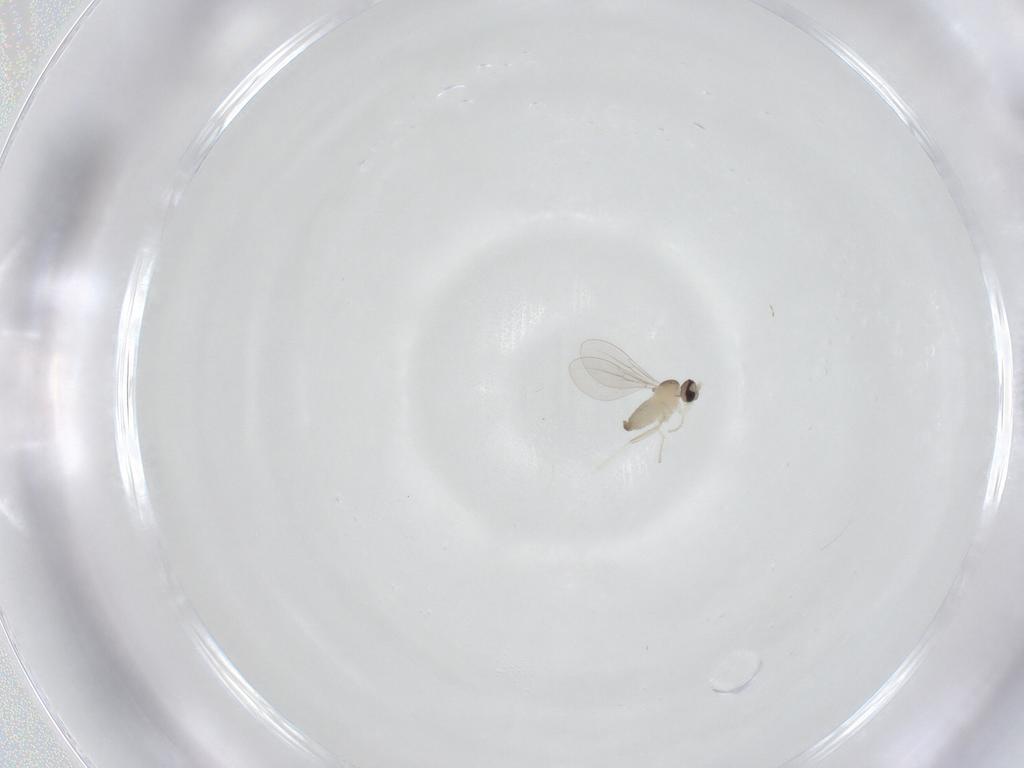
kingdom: Animalia
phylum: Arthropoda
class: Insecta
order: Diptera
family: Cecidomyiidae
